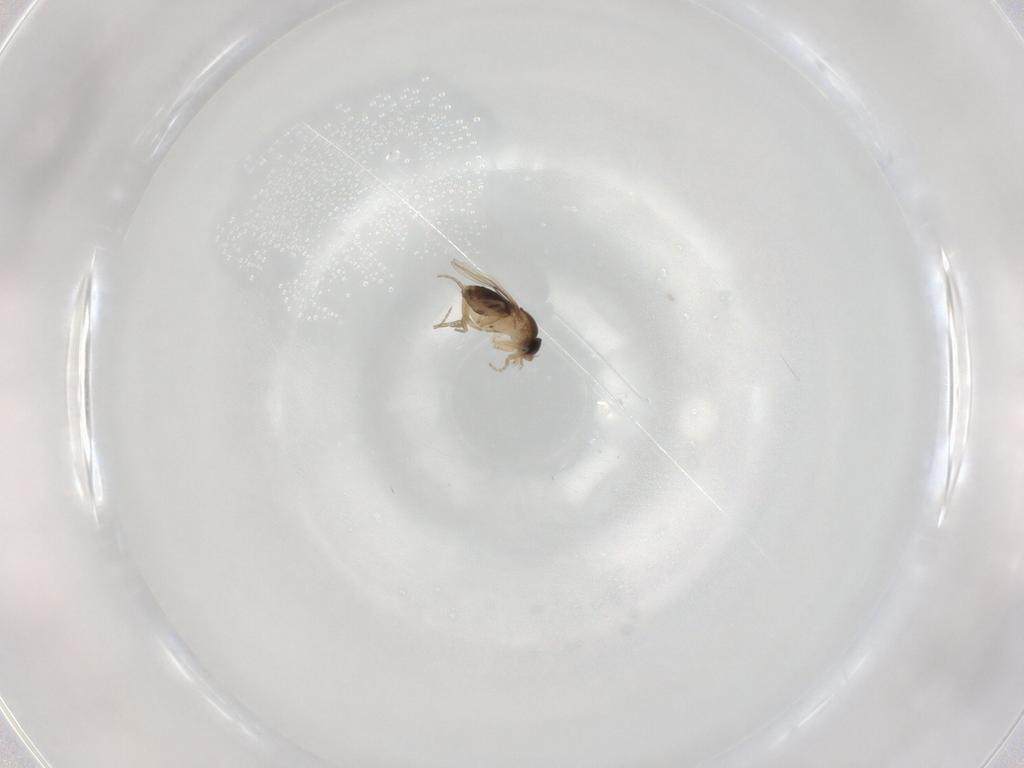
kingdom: Animalia
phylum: Arthropoda
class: Insecta
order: Diptera
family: Phoridae
